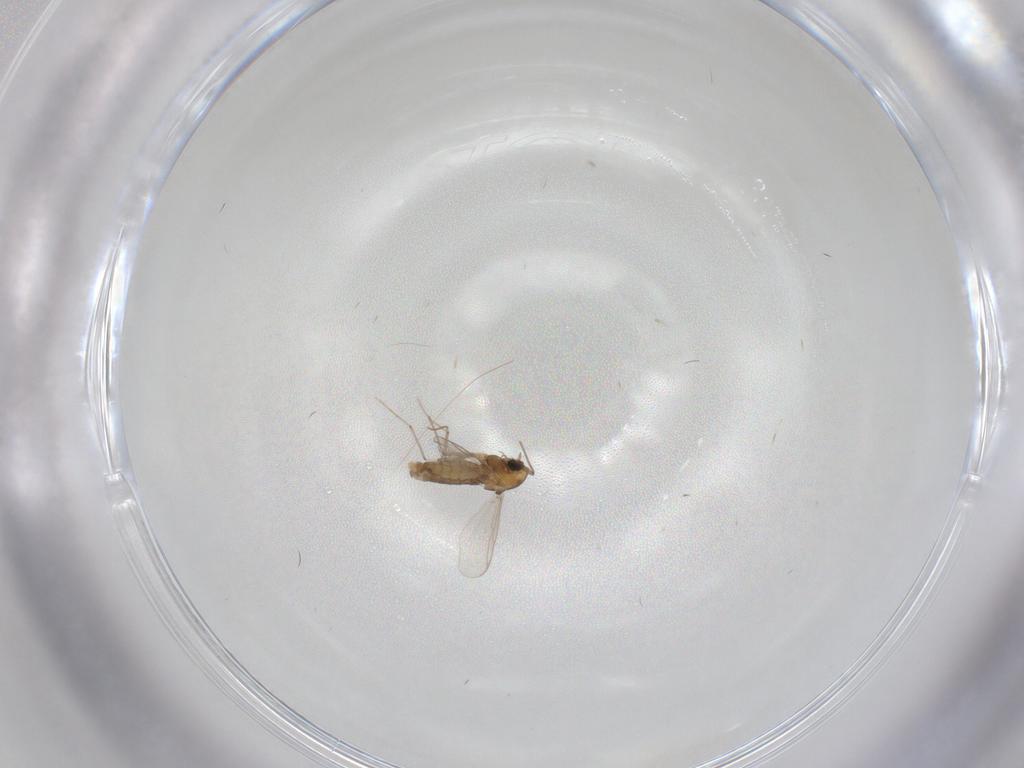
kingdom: Animalia
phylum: Arthropoda
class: Insecta
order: Diptera
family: Chironomidae
